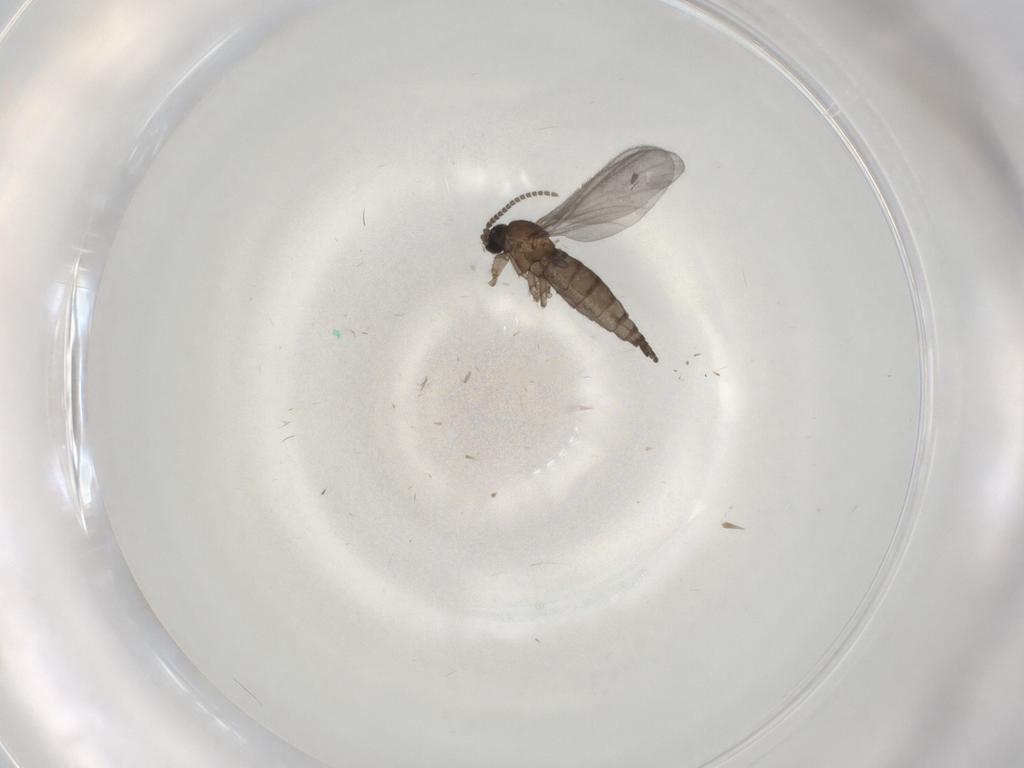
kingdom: Animalia
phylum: Arthropoda
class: Insecta
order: Diptera
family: Sciaridae
